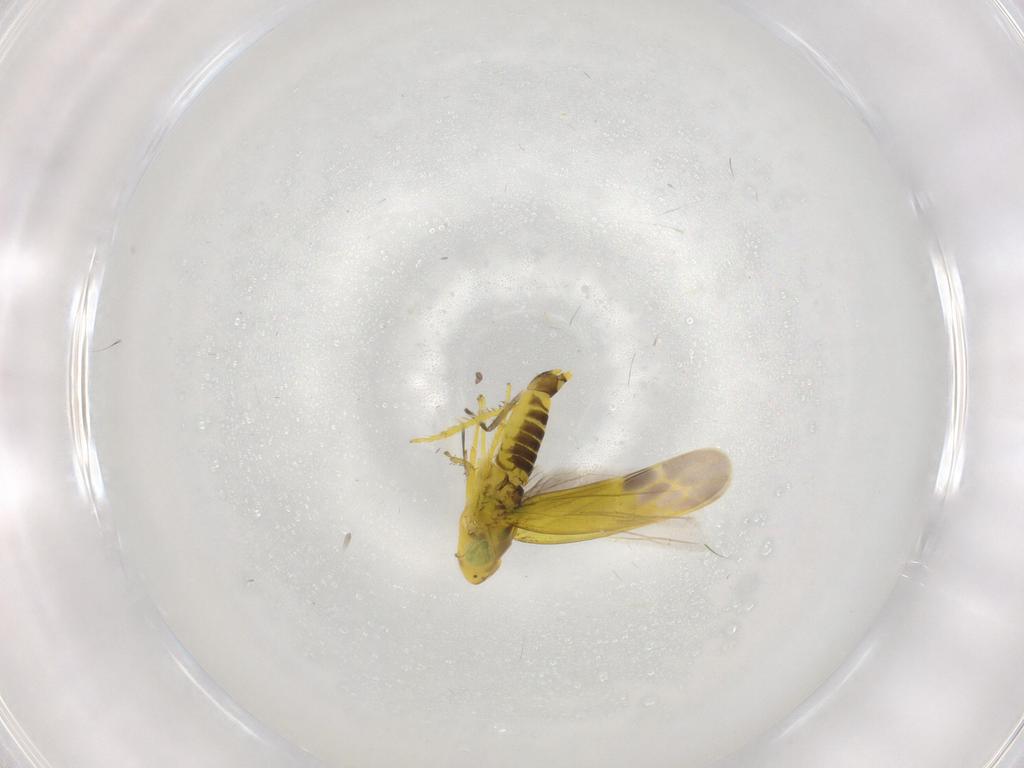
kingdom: Animalia
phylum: Arthropoda
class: Insecta
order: Hemiptera
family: Cicadellidae
